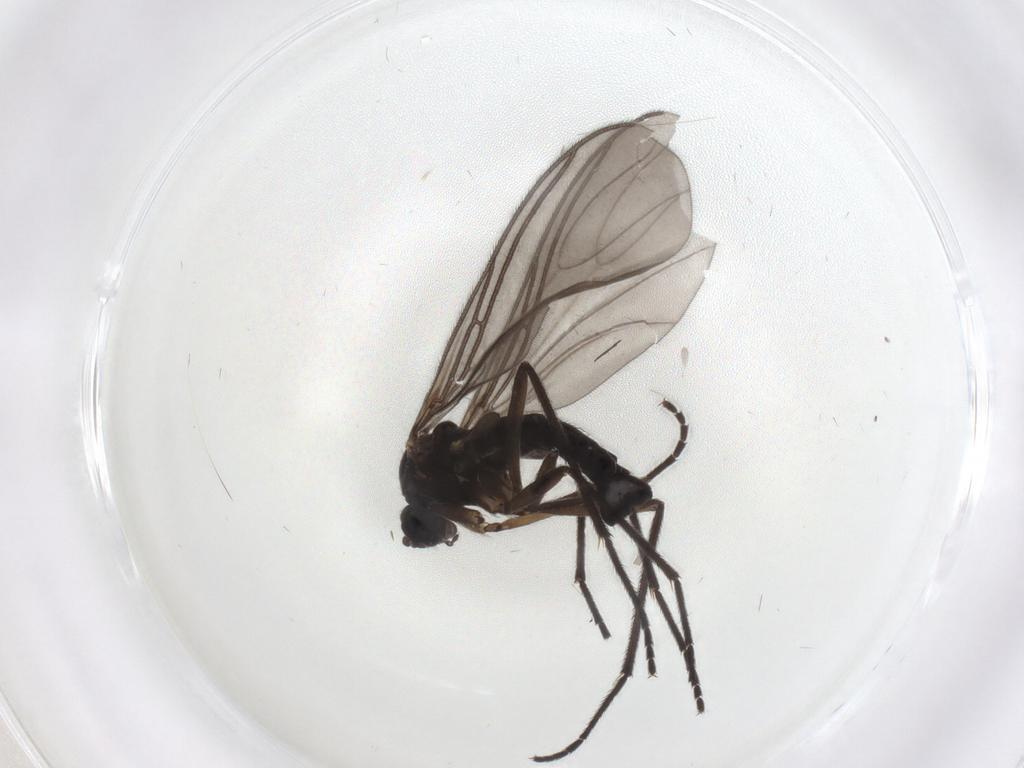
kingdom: Animalia
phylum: Arthropoda
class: Insecta
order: Diptera
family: Sciaridae
